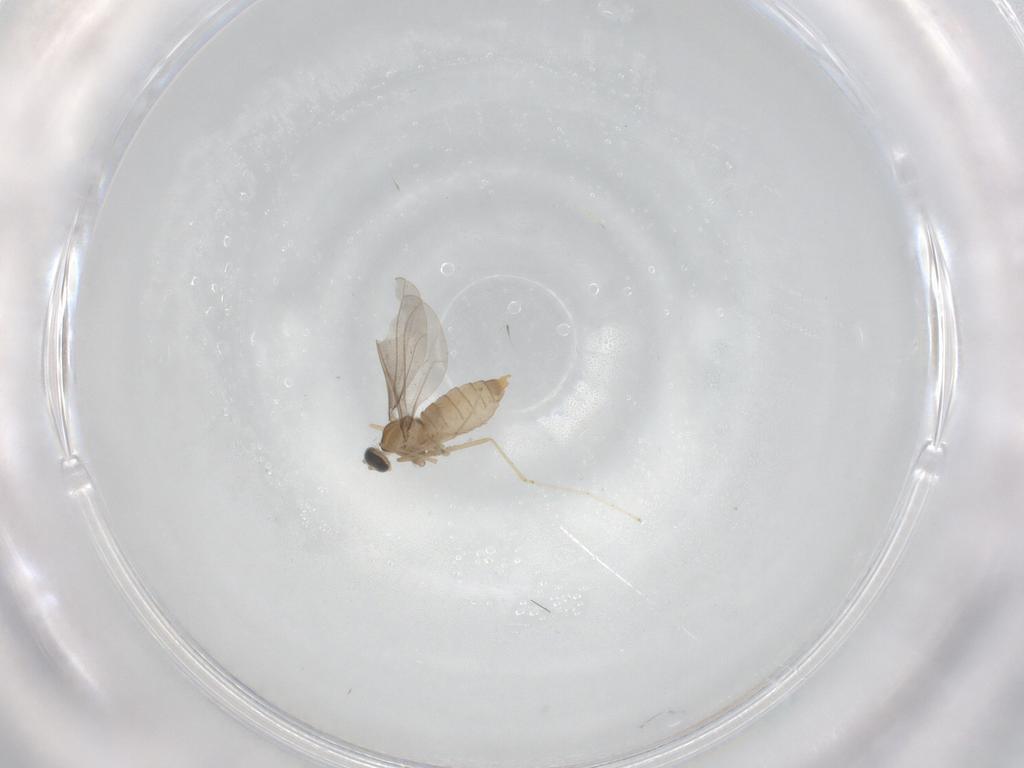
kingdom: Animalia
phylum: Arthropoda
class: Insecta
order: Diptera
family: Cecidomyiidae
